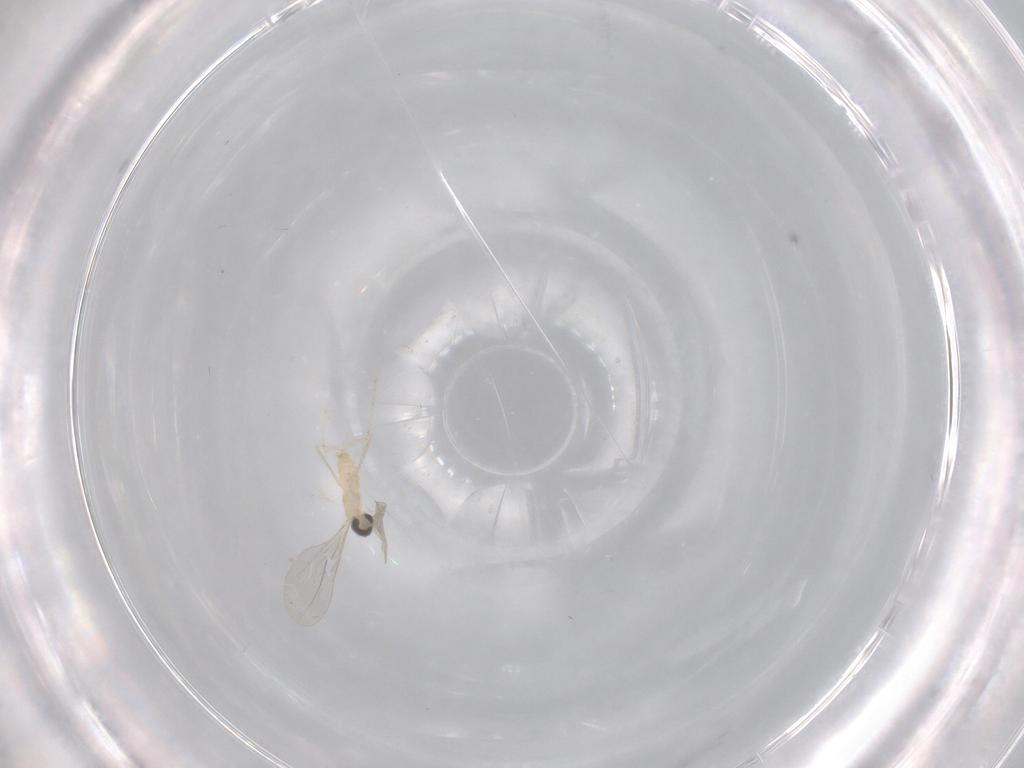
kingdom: Animalia
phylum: Arthropoda
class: Insecta
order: Diptera
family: Cecidomyiidae
